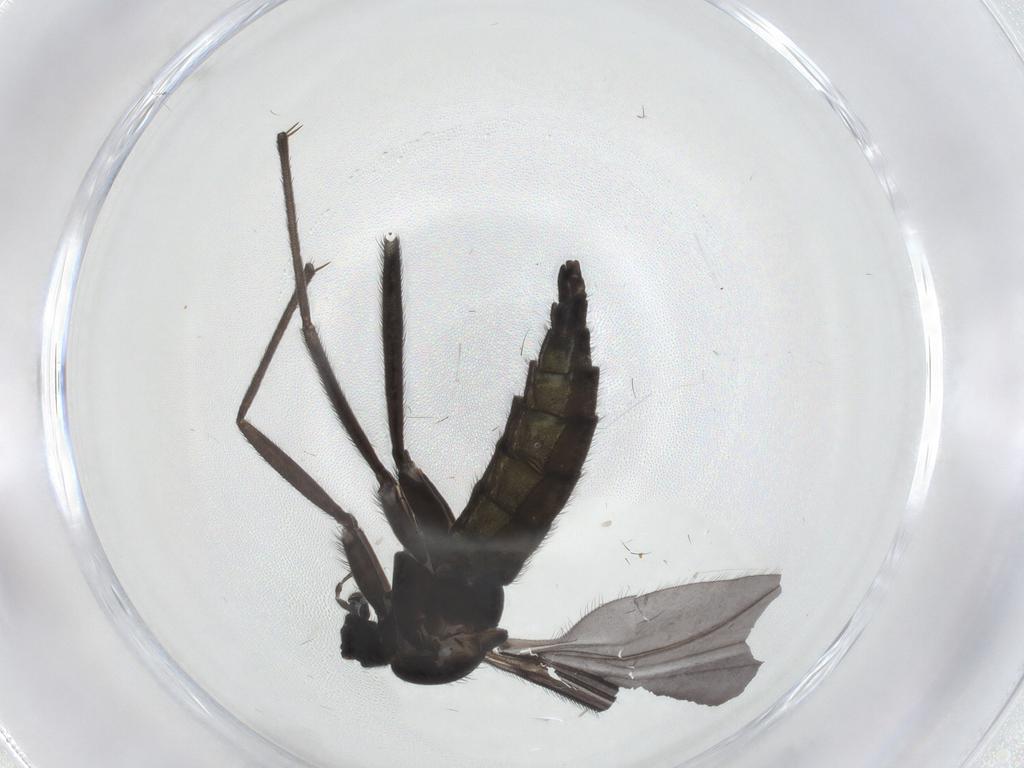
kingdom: Animalia
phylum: Arthropoda
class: Insecta
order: Diptera
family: Sciaridae
